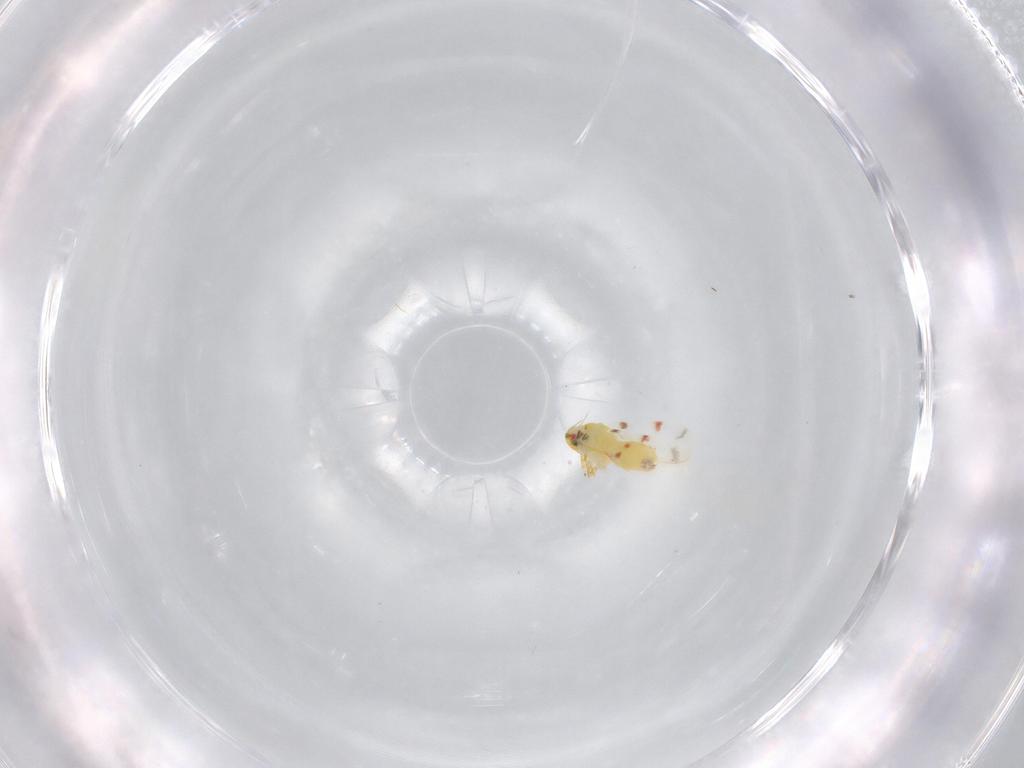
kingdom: Animalia
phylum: Arthropoda
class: Insecta
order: Hemiptera
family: Aleyrodidae
